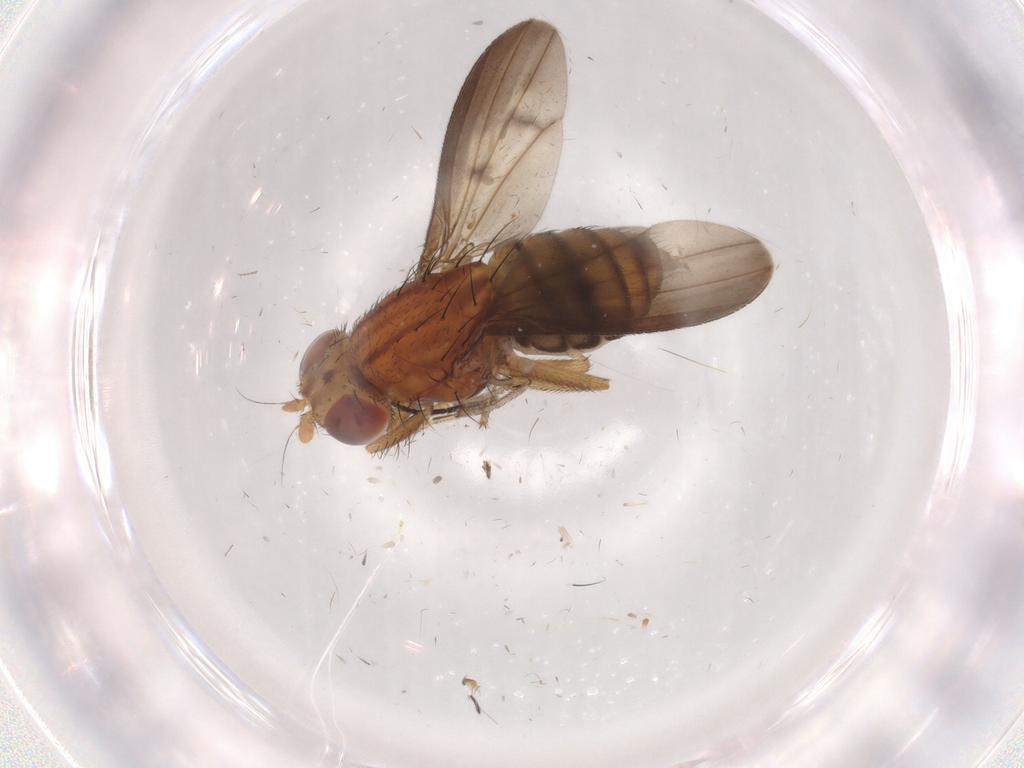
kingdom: Animalia
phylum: Arthropoda
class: Insecta
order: Diptera
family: Lauxaniidae
